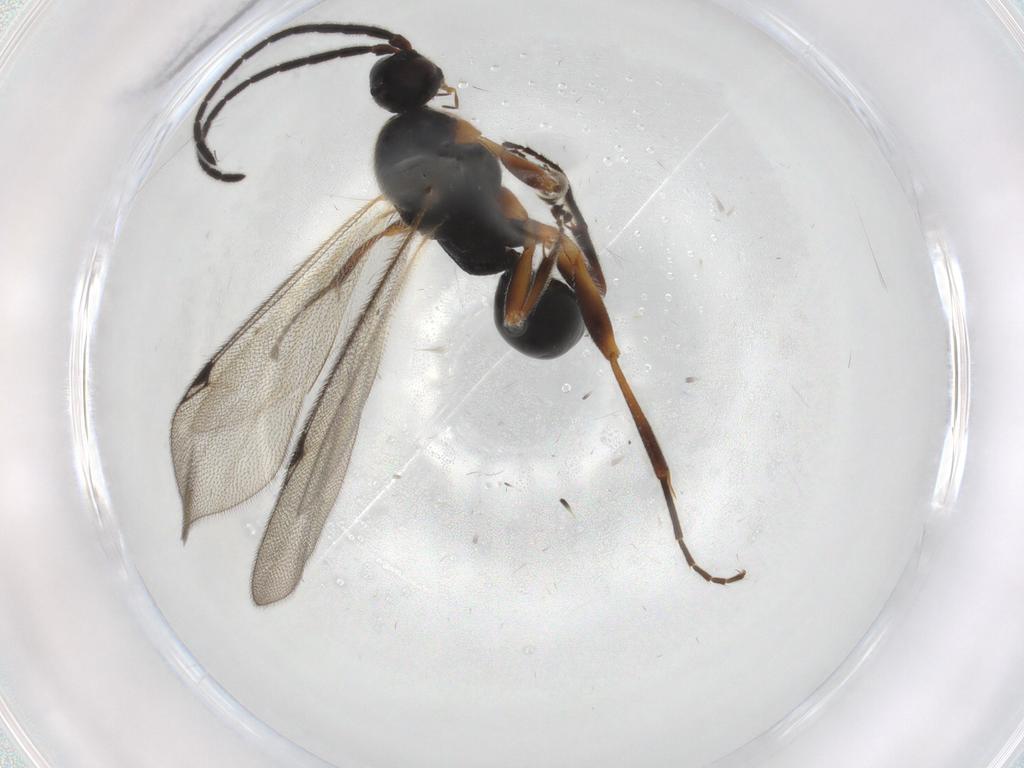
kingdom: Animalia
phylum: Arthropoda
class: Insecta
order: Hymenoptera
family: Proctotrupidae
